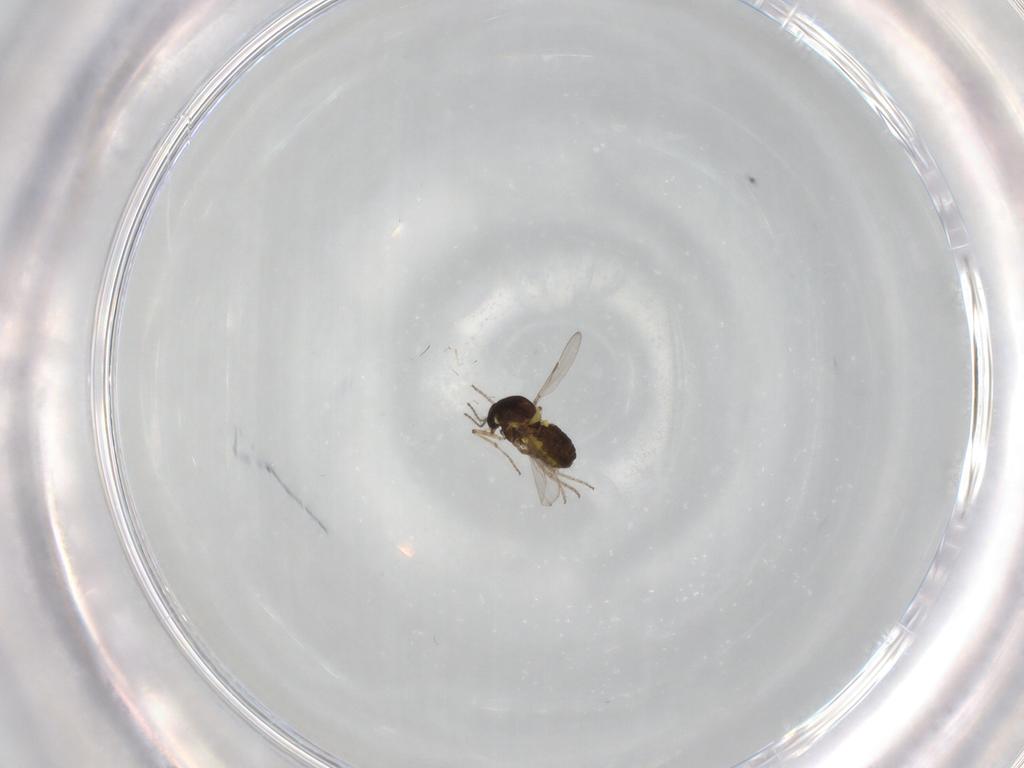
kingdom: Animalia
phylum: Arthropoda
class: Insecta
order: Diptera
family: Ceratopogonidae
